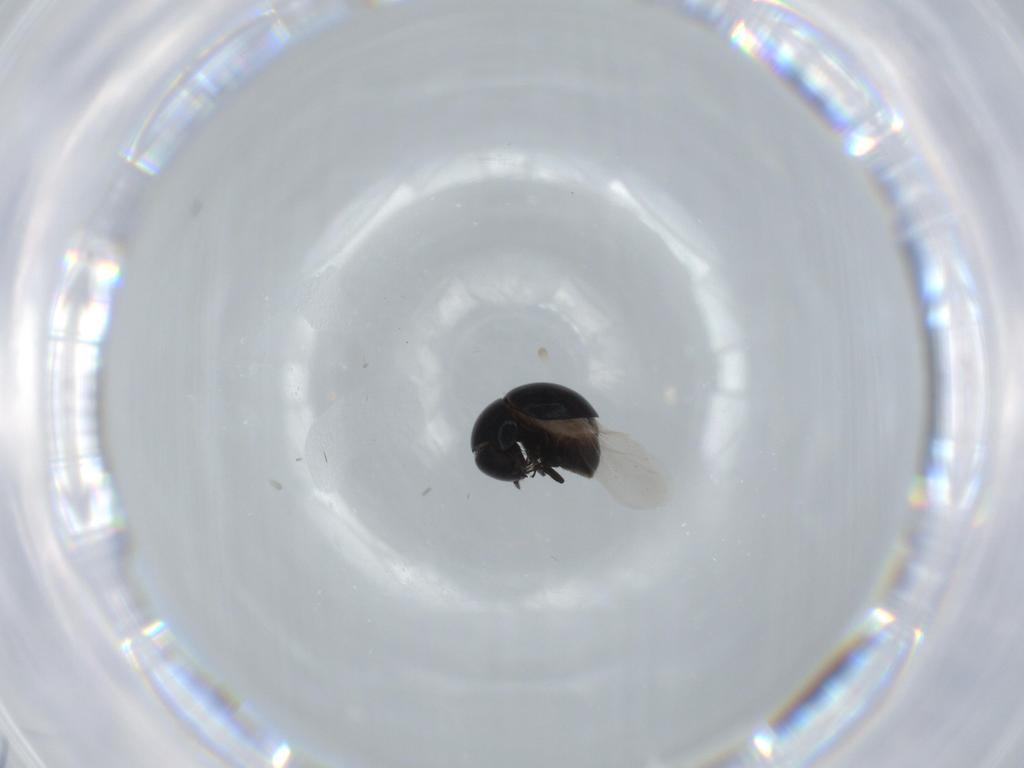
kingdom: Animalia
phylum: Arthropoda
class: Insecta
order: Coleoptera
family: Cybocephalidae
